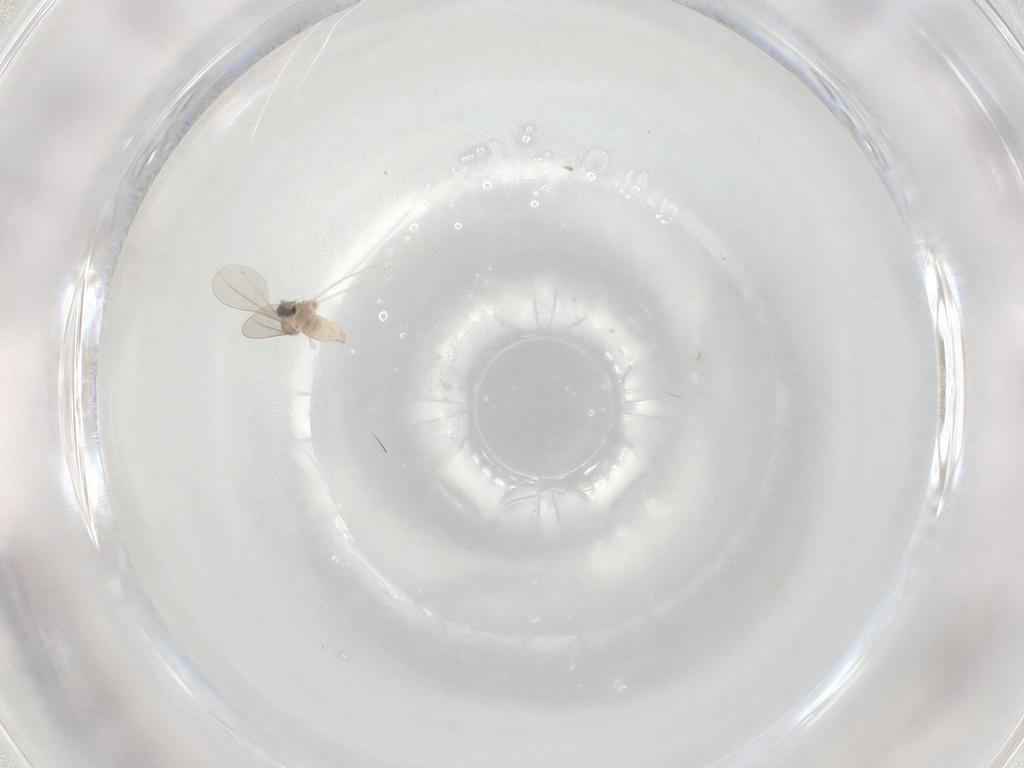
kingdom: Animalia
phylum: Arthropoda
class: Insecta
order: Diptera
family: Cecidomyiidae
